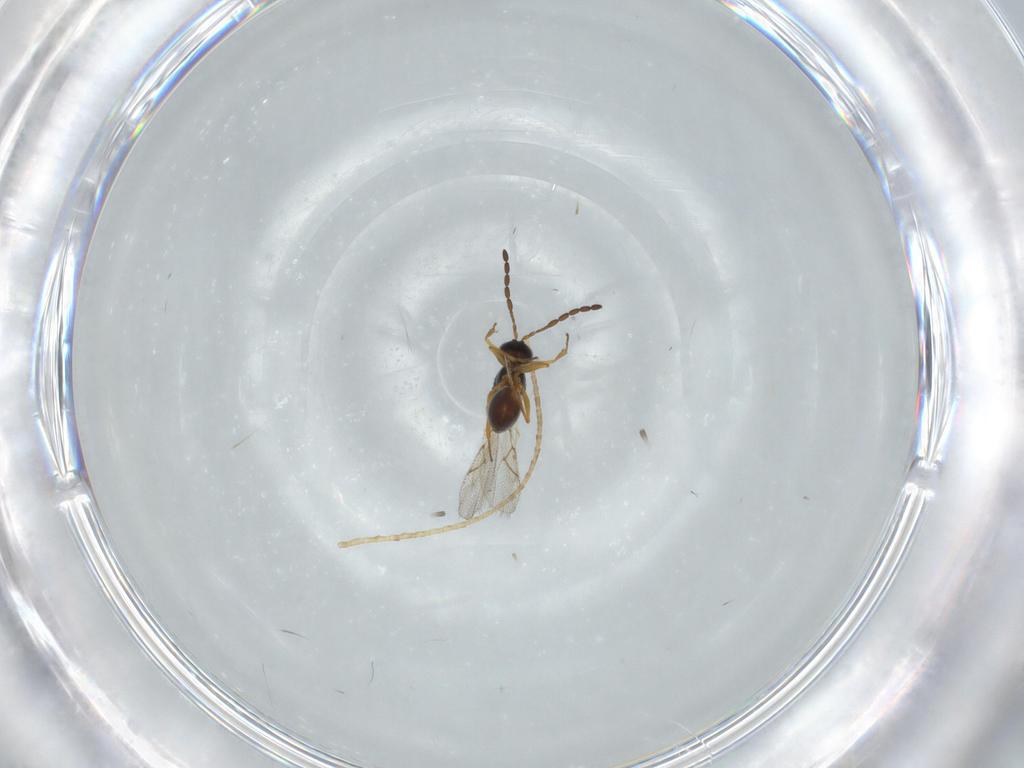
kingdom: Animalia
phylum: Arthropoda
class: Insecta
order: Hymenoptera
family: Figitidae
